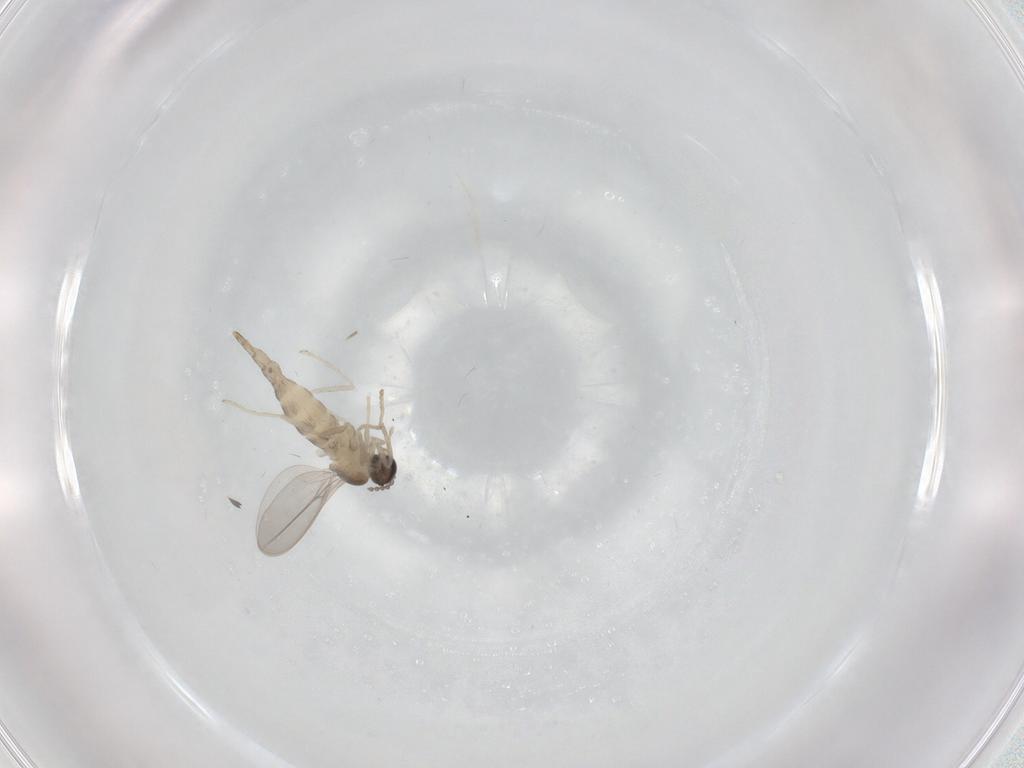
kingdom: Animalia
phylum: Arthropoda
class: Insecta
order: Diptera
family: Cecidomyiidae
